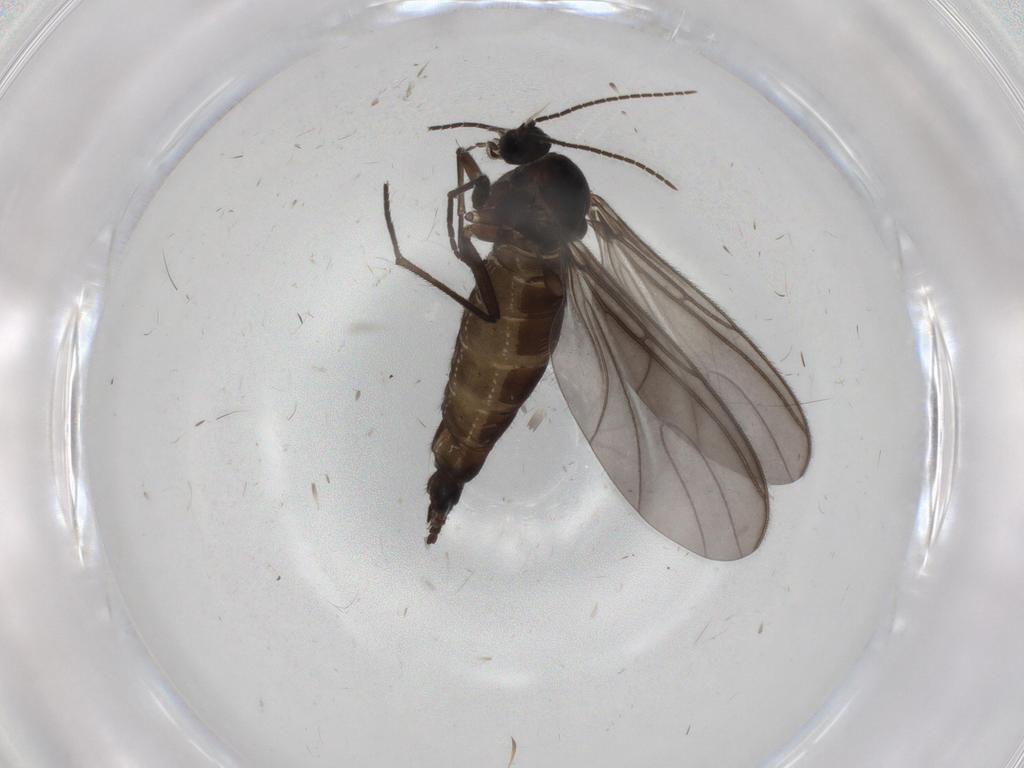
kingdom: Animalia
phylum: Arthropoda
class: Insecta
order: Diptera
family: Sciaridae
